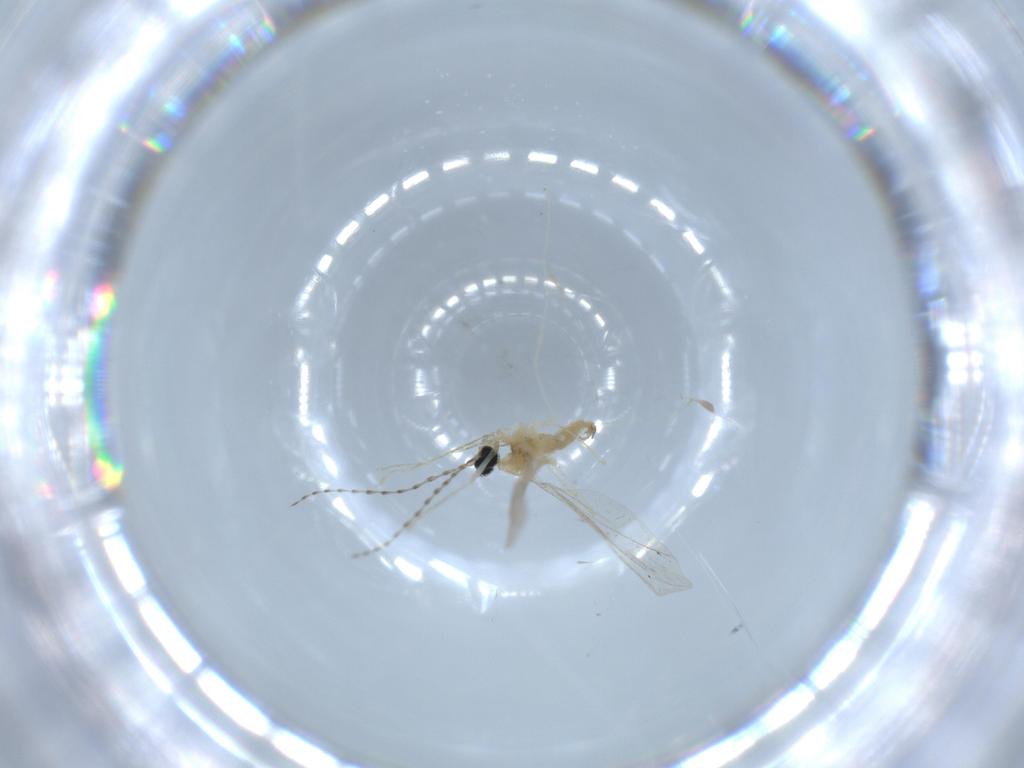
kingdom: Animalia
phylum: Arthropoda
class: Insecta
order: Diptera
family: Cecidomyiidae
